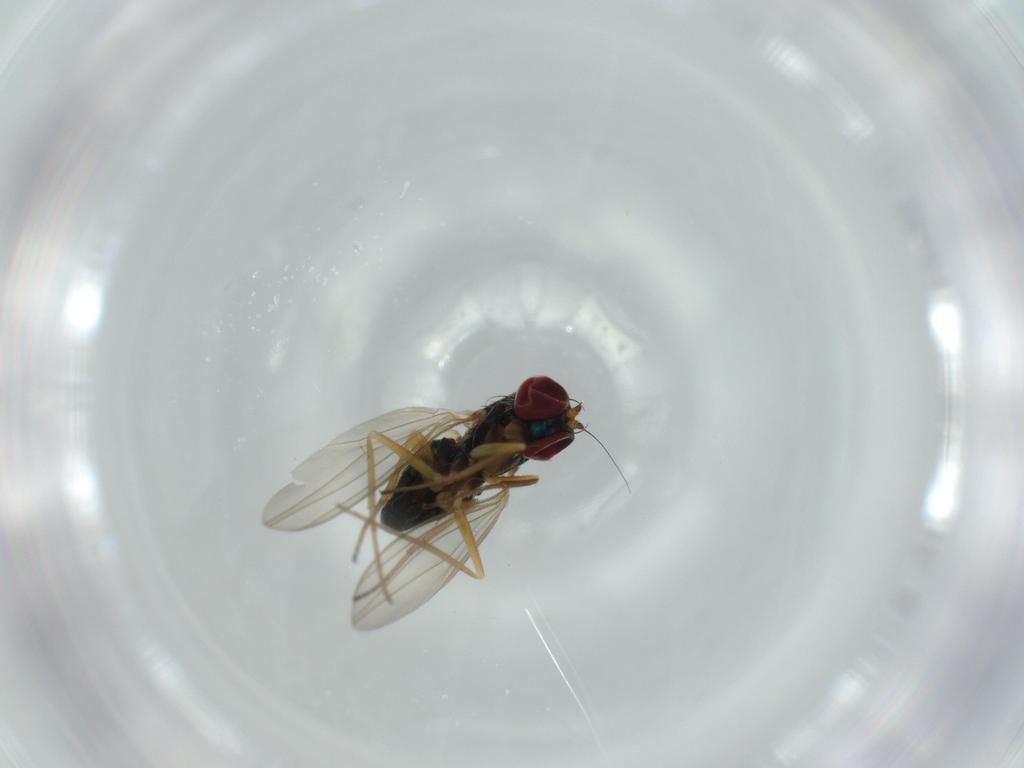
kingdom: Animalia
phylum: Arthropoda
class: Insecta
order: Diptera
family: Dolichopodidae
